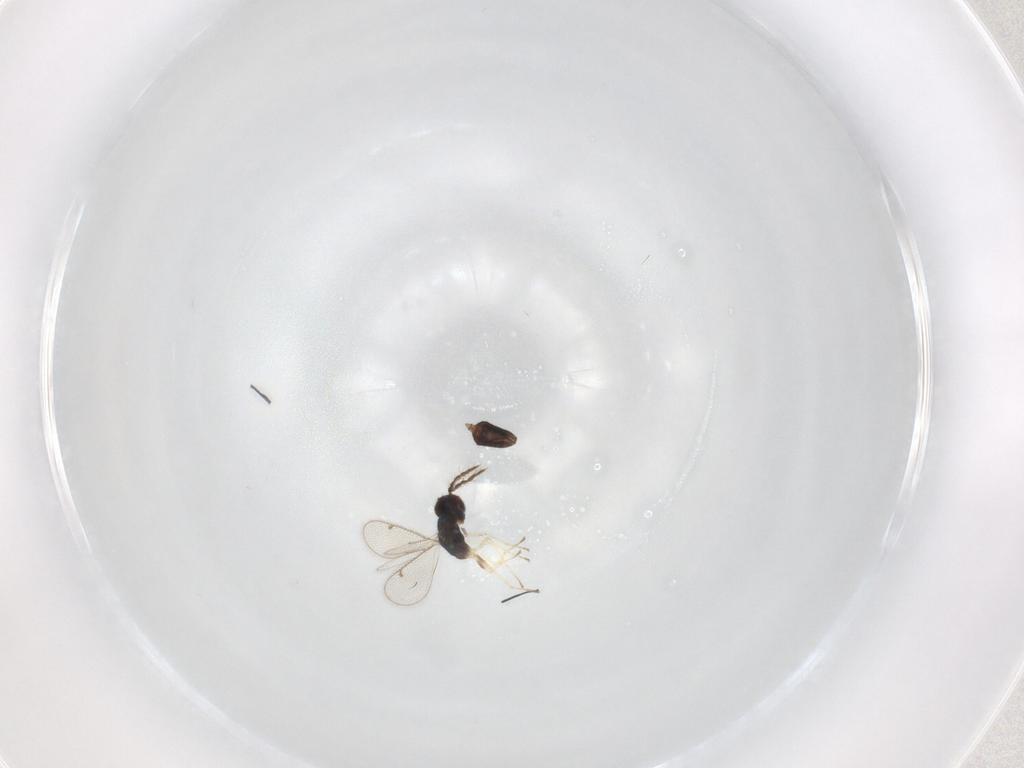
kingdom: Animalia
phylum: Arthropoda
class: Insecta
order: Hymenoptera
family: Eulophidae
